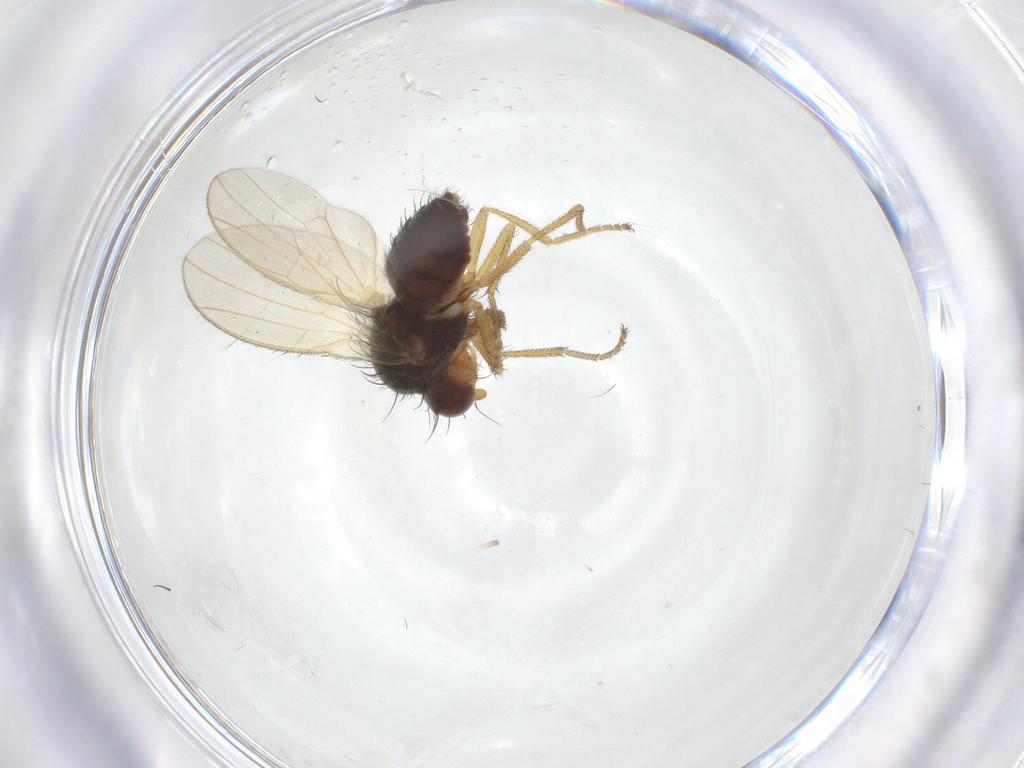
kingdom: Animalia
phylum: Arthropoda
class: Insecta
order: Diptera
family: Heleomyzidae
